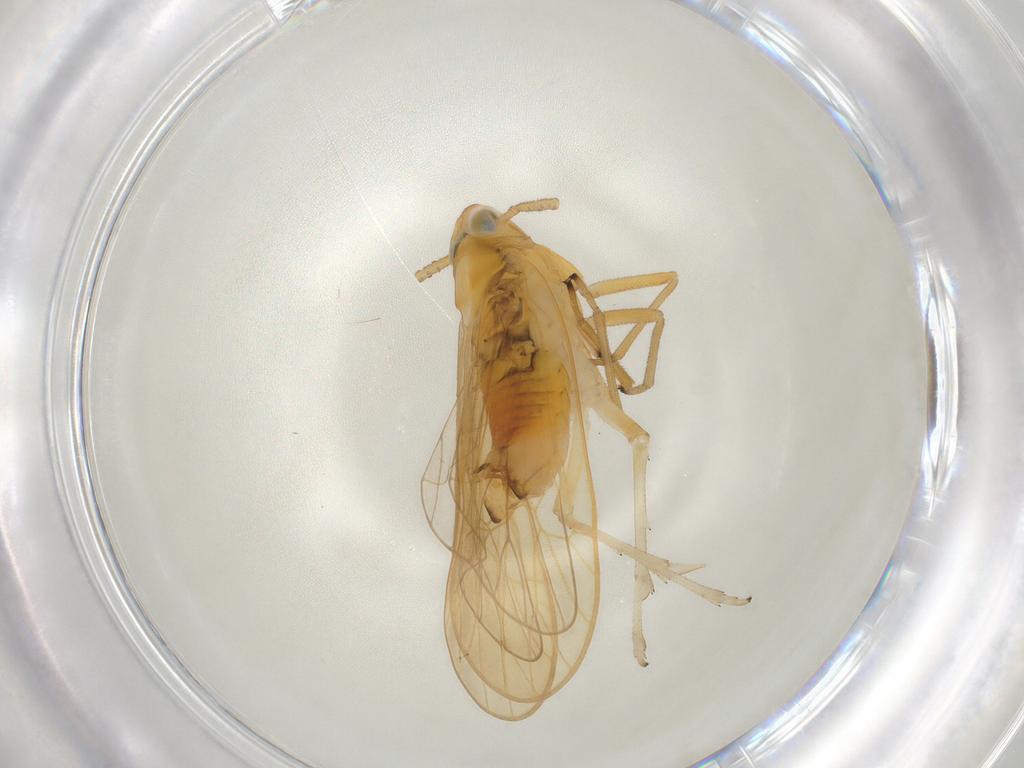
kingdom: Animalia
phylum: Arthropoda
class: Insecta
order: Hemiptera
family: Delphacidae
